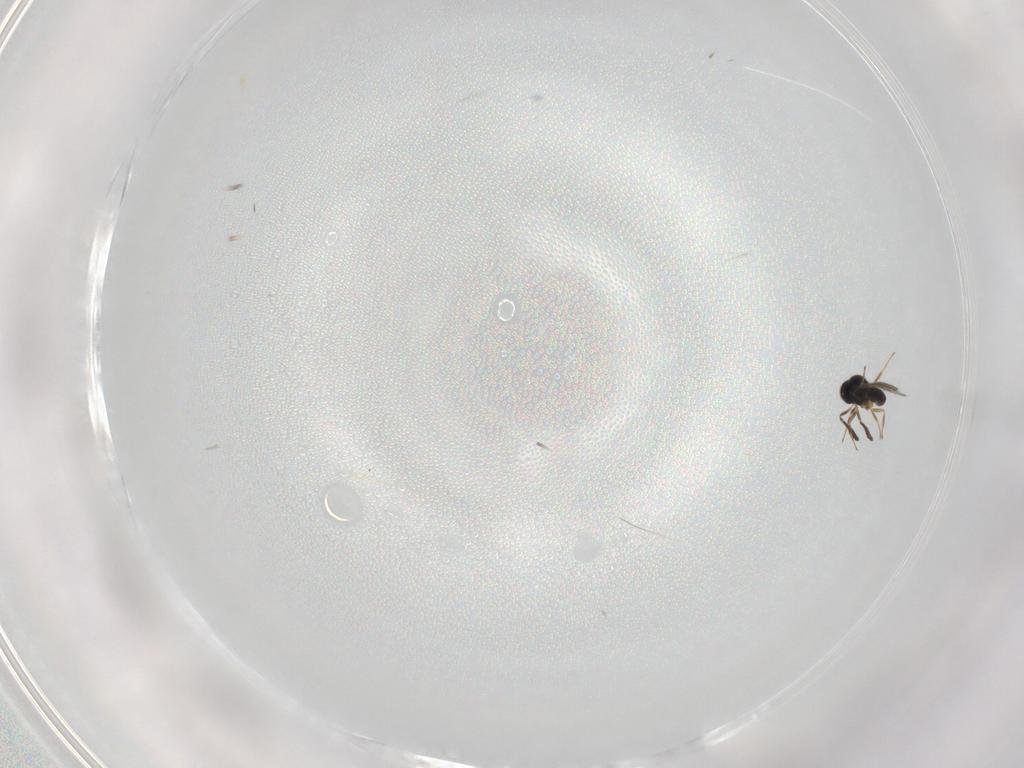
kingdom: Animalia
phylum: Arthropoda
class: Insecta
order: Hymenoptera
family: Scelionidae
